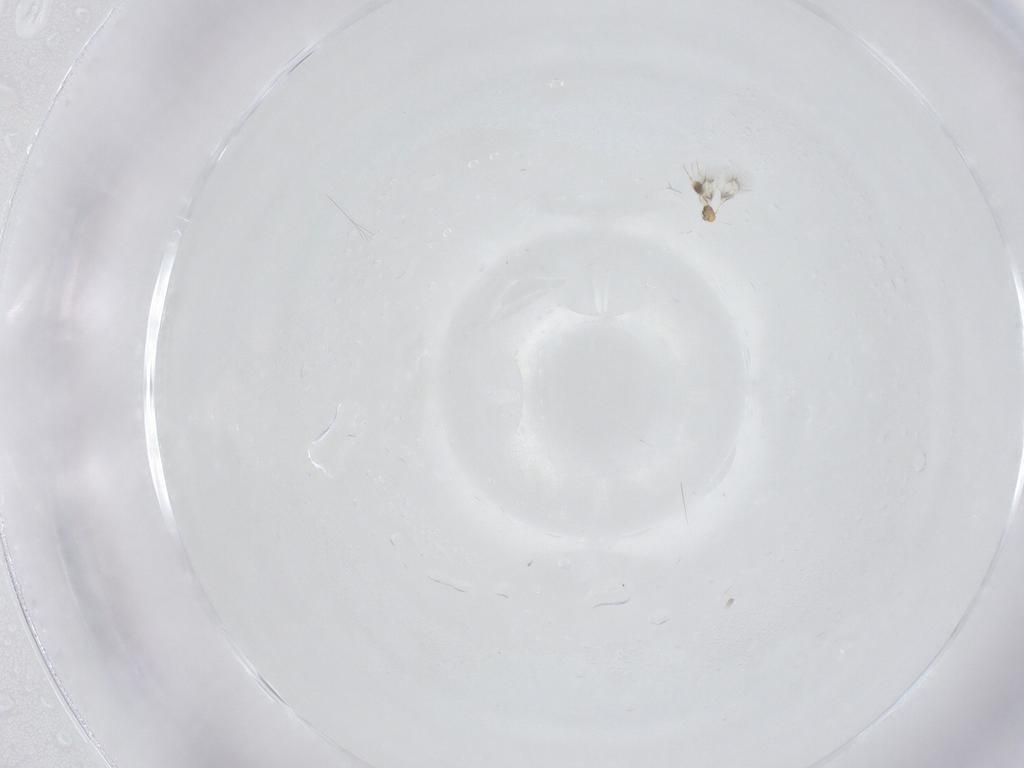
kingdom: Animalia
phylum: Arthropoda
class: Insecta
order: Hymenoptera
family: Mymarommatidae
